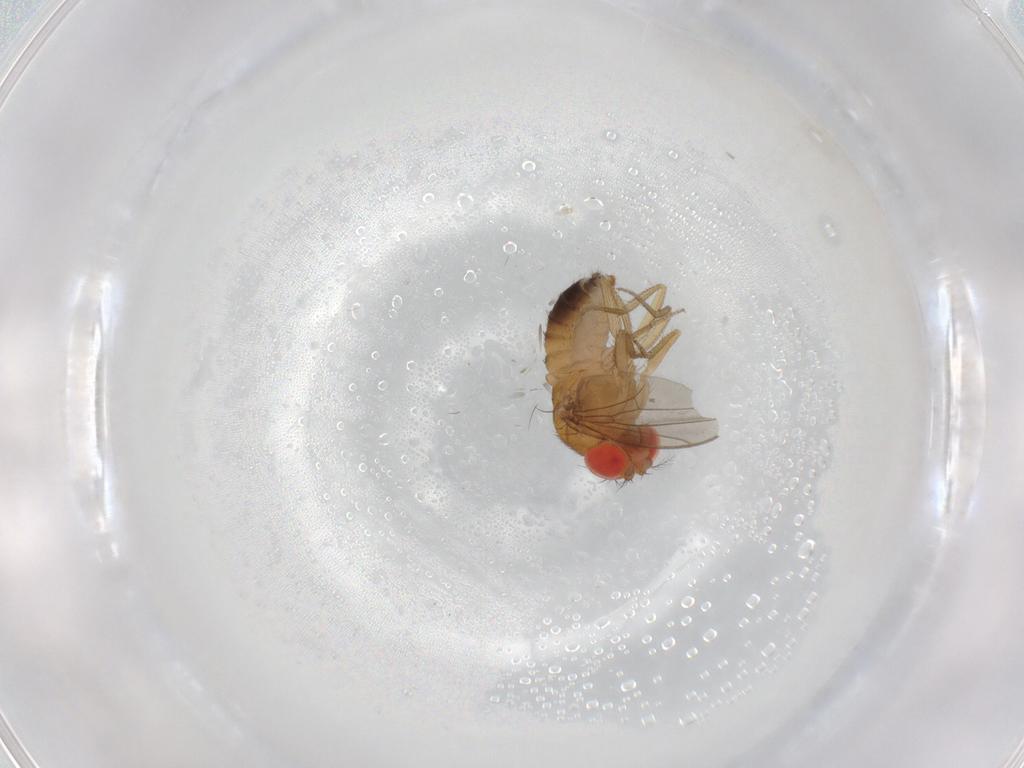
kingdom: Animalia
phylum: Arthropoda
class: Insecta
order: Diptera
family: Drosophilidae
